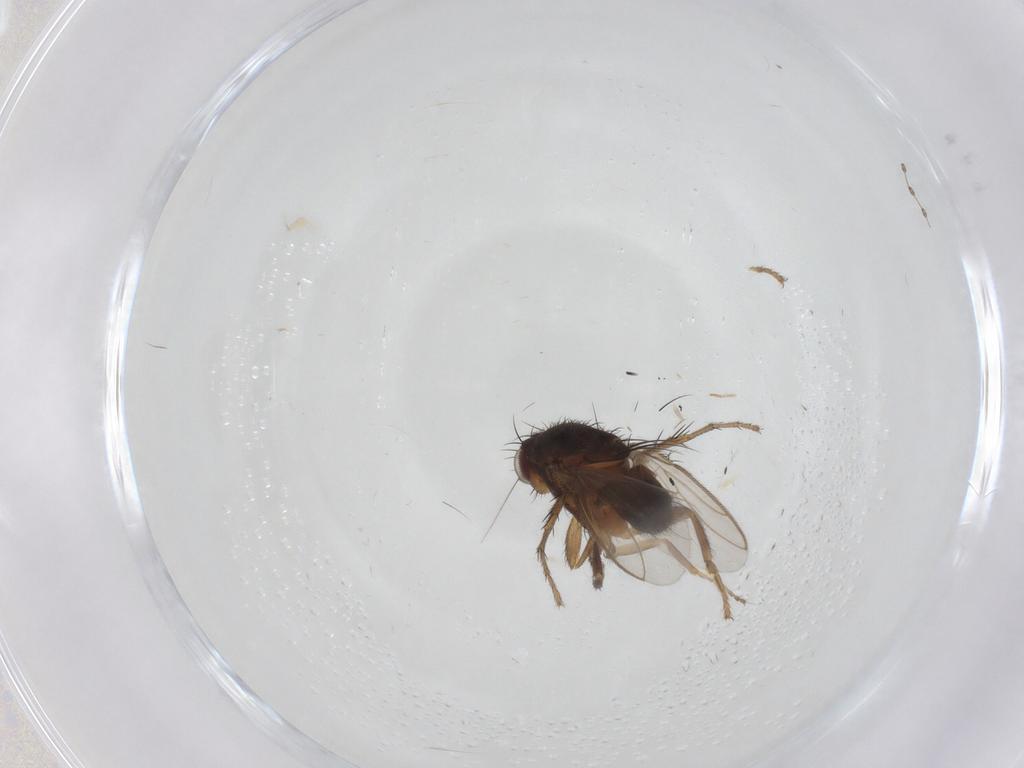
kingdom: Animalia
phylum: Arthropoda
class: Insecta
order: Diptera
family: Ceratopogonidae
